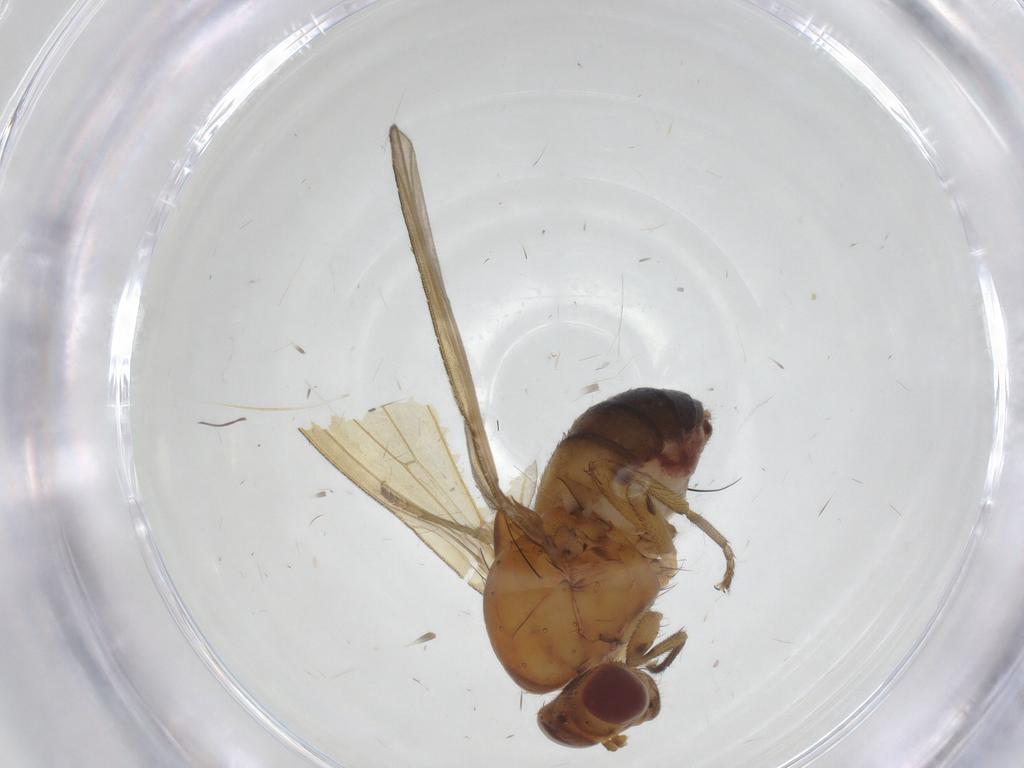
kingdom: Animalia
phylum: Arthropoda
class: Insecta
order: Diptera
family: Lauxaniidae
